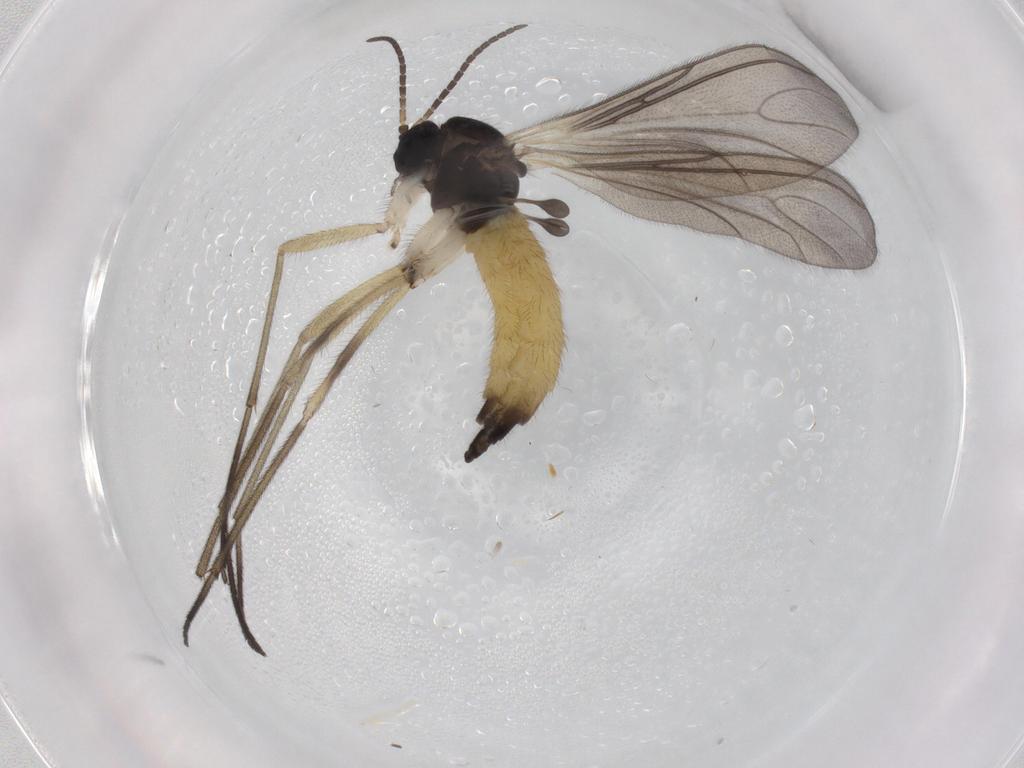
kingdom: Animalia
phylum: Arthropoda
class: Insecta
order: Diptera
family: Sciaridae
